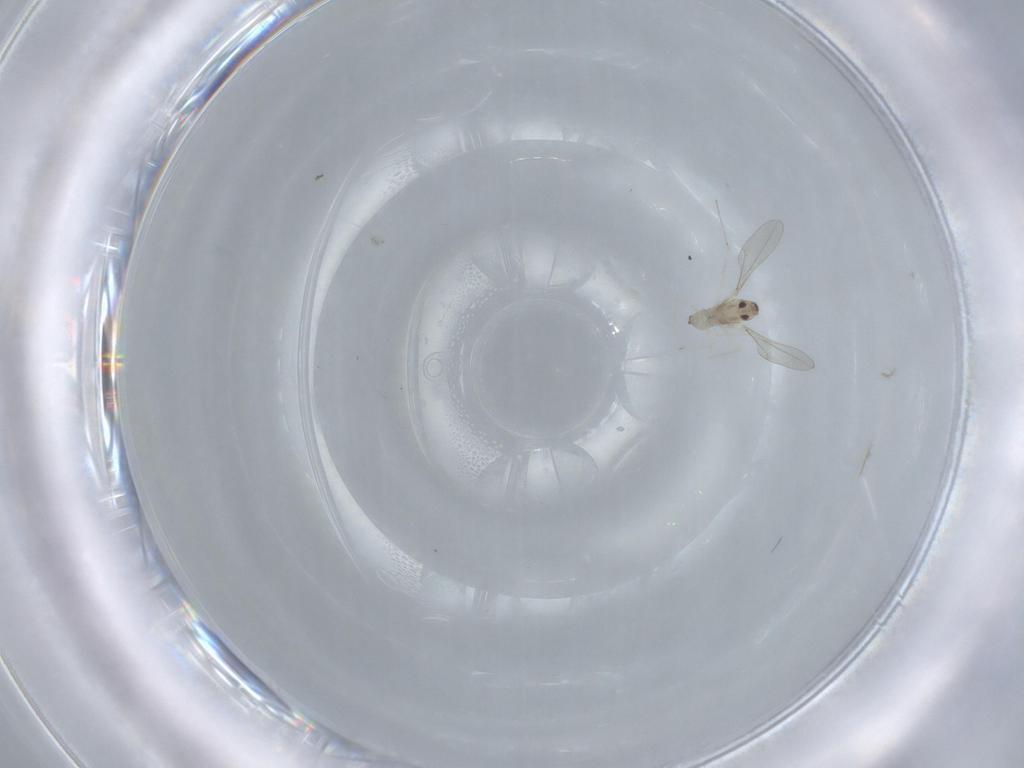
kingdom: Animalia
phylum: Arthropoda
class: Insecta
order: Diptera
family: Cecidomyiidae
